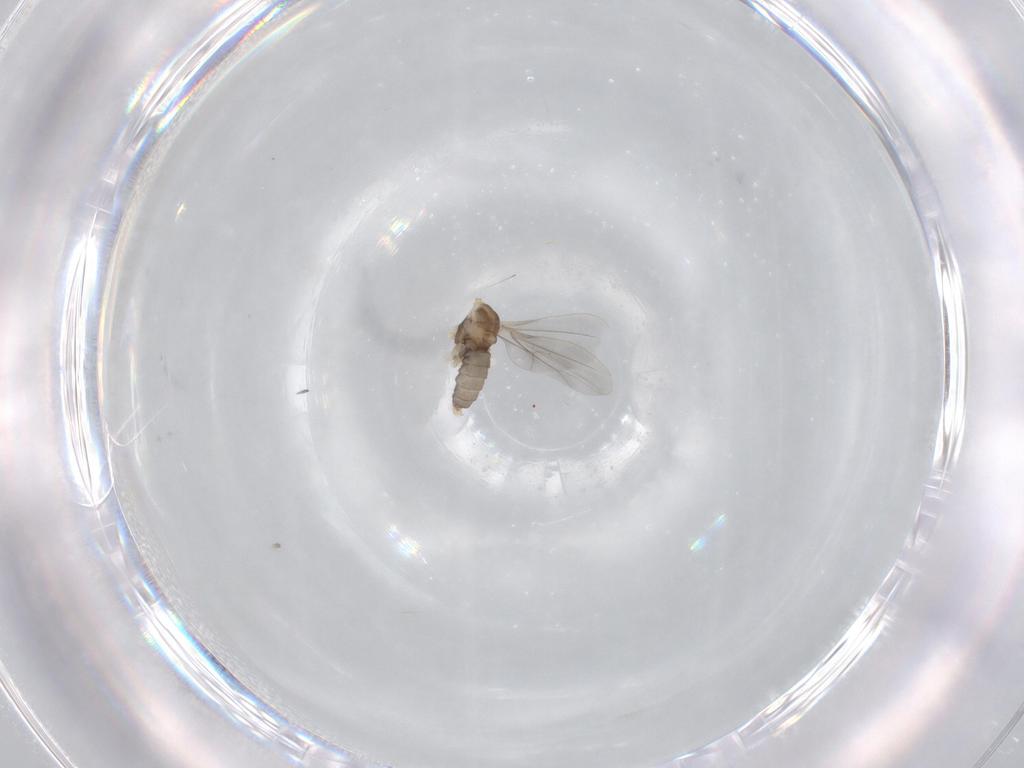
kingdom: Animalia
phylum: Arthropoda
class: Insecta
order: Diptera
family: Cecidomyiidae
